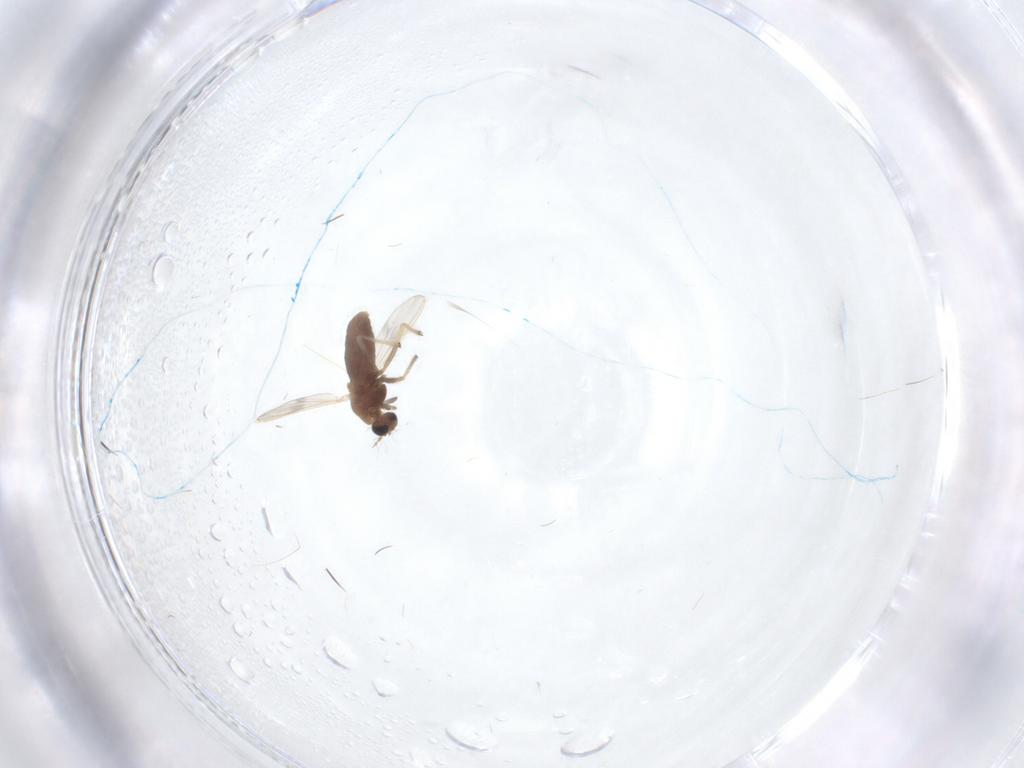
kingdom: Animalia
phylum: Arthropoda
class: Insecta
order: Diptera
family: Chironomidae
